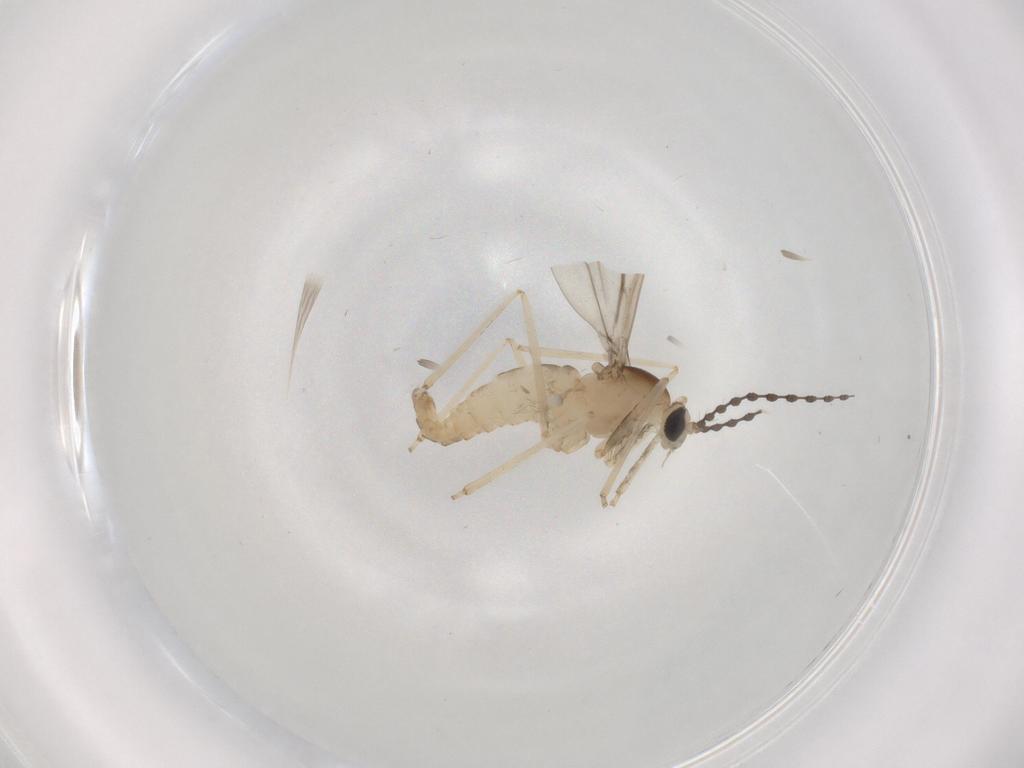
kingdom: Animalia
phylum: Arthropoda
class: Insecta
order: Diptera
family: Cecidomyiidae
